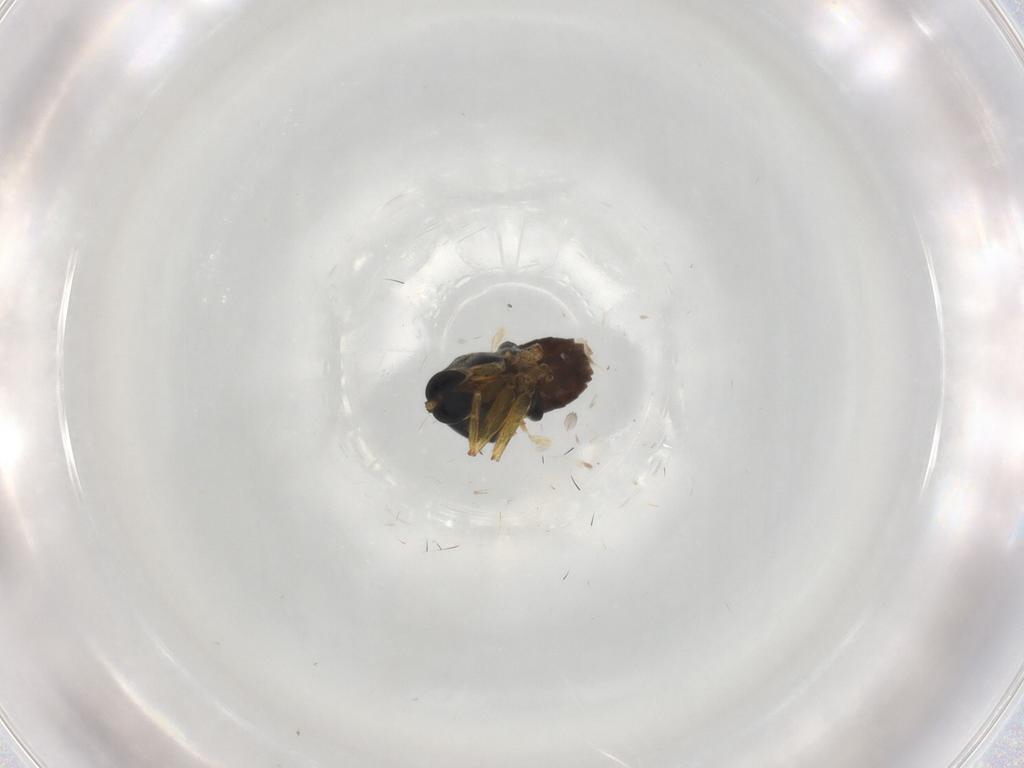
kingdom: Animalia
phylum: Arthropoda
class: Insecta
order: Diptera
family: Hybotidae
